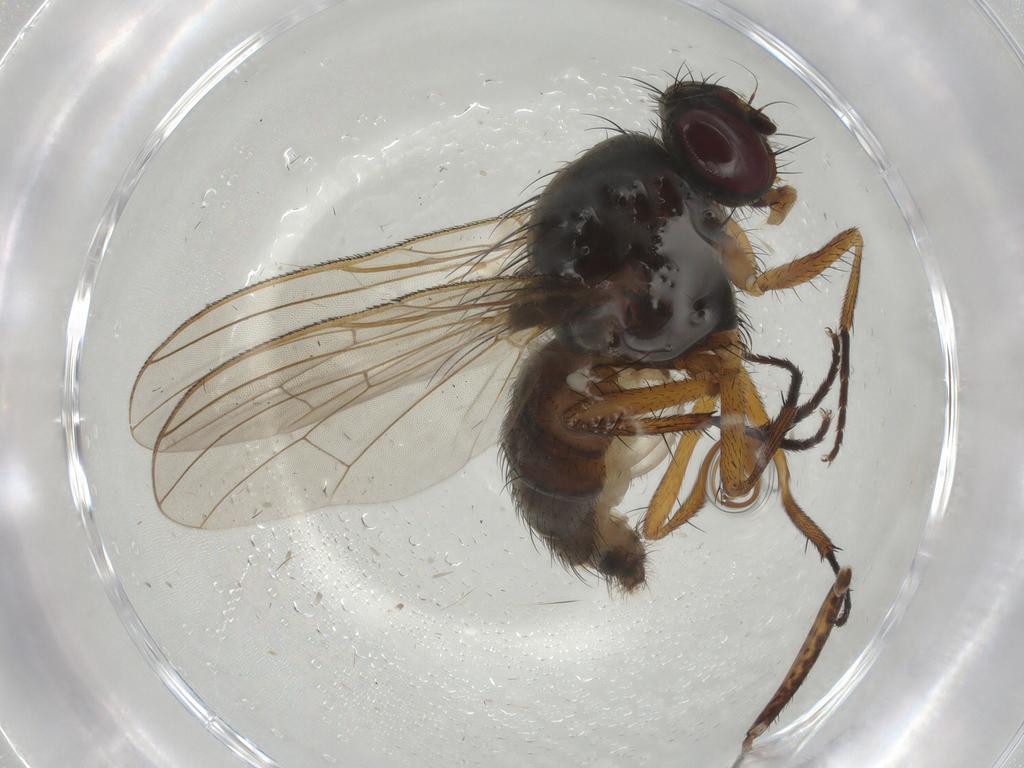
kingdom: Animalia
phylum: Arthropoda
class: Insecta
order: Diptera
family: Anthomyiidae
